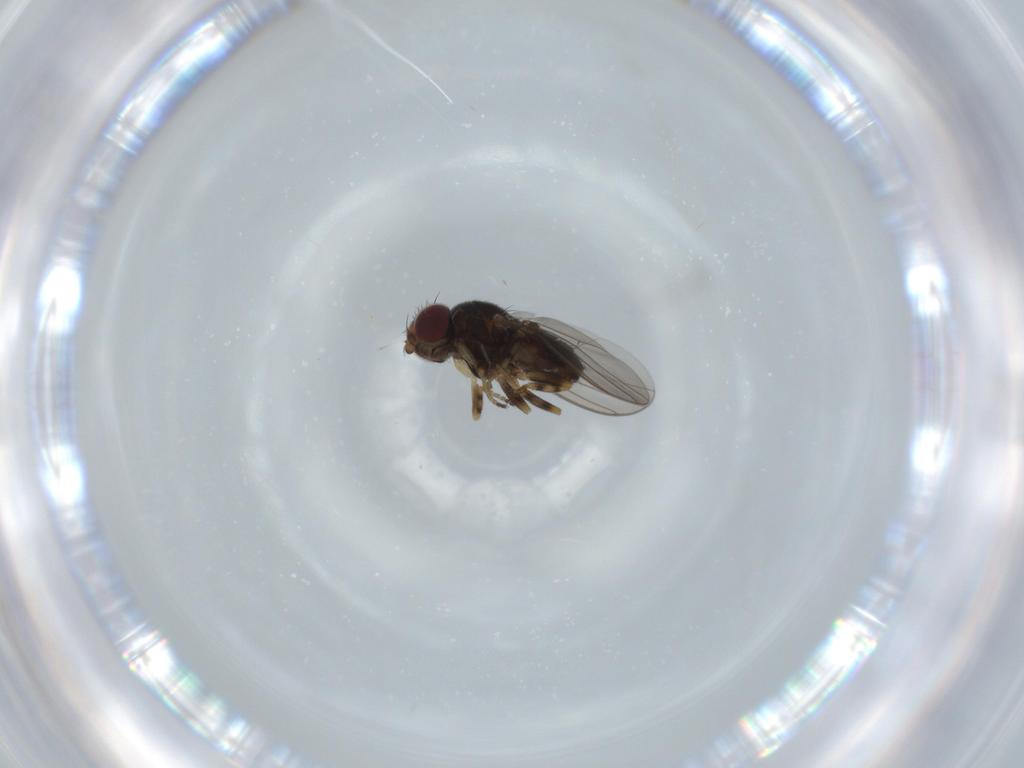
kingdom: Animalia
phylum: Arthropoda
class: Insecta
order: Diptera
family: Chloropidae
